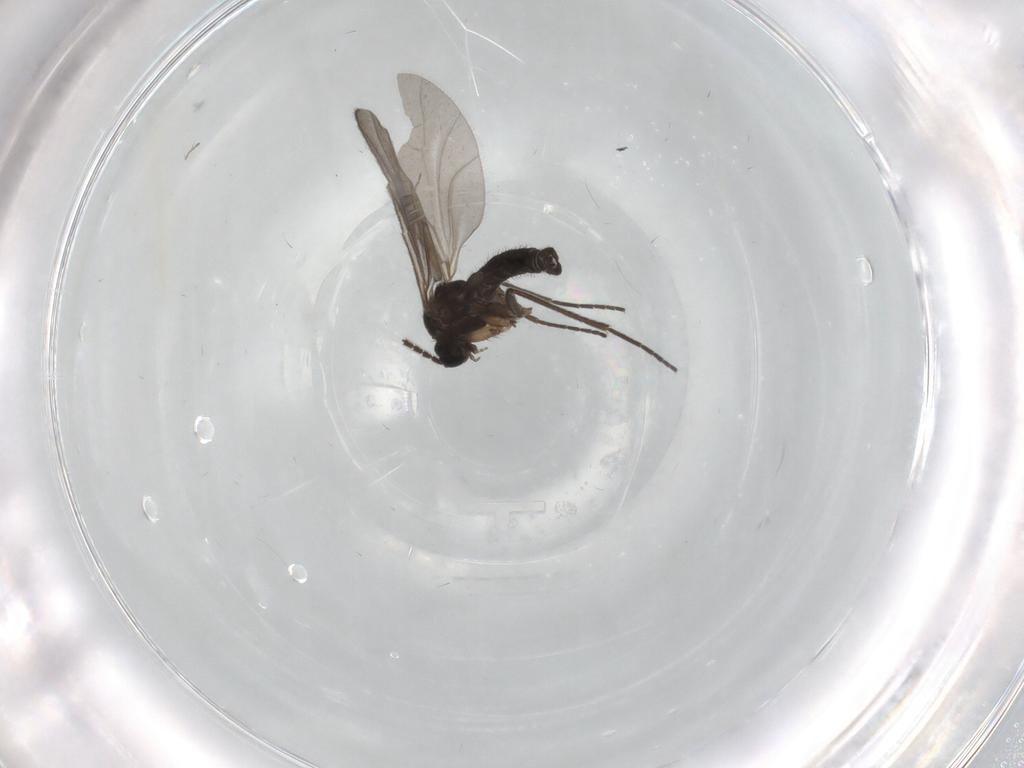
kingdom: Animalia
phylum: Arthropoda
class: Insecta
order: Diptera
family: Sciaridae
